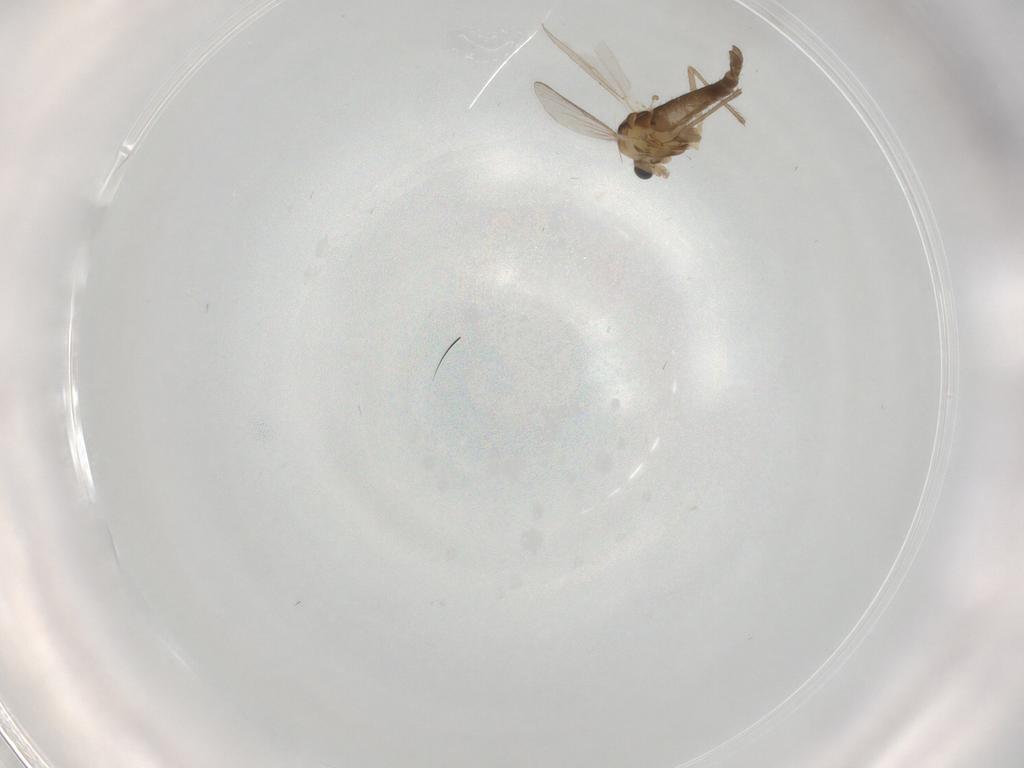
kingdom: Animalia
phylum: Arthropoda
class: Insecta
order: Diptera
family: Chironomidae
